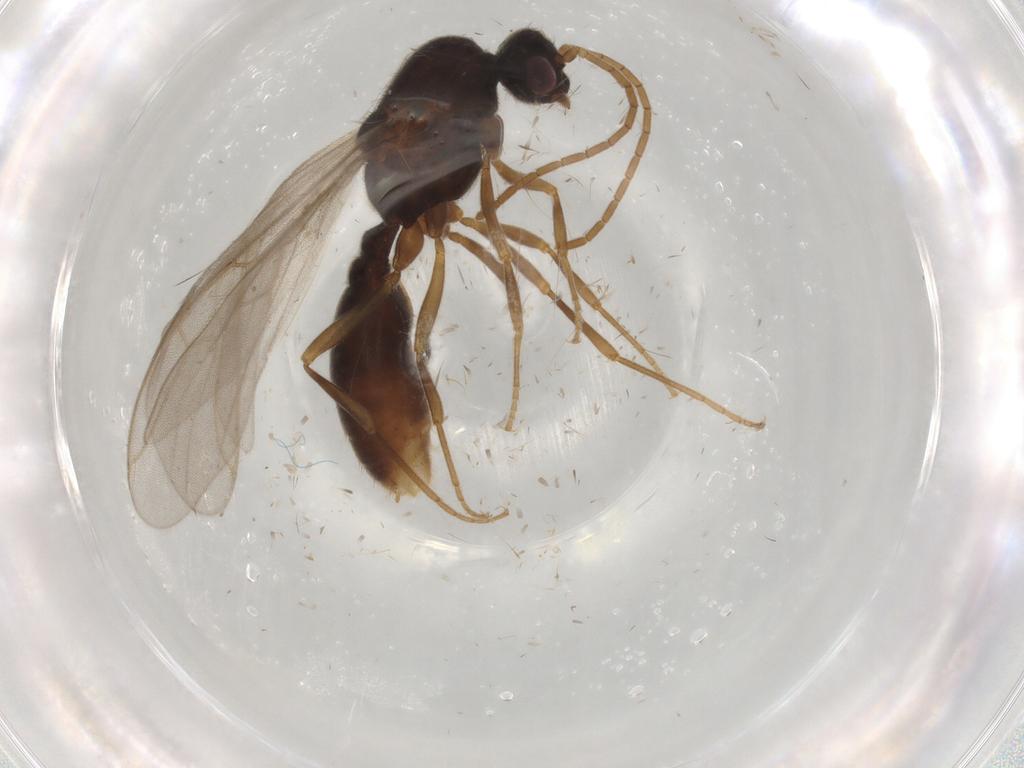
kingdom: Animalia
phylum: Arthropoda
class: Insecta
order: Hymenoptera
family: Formicidae
